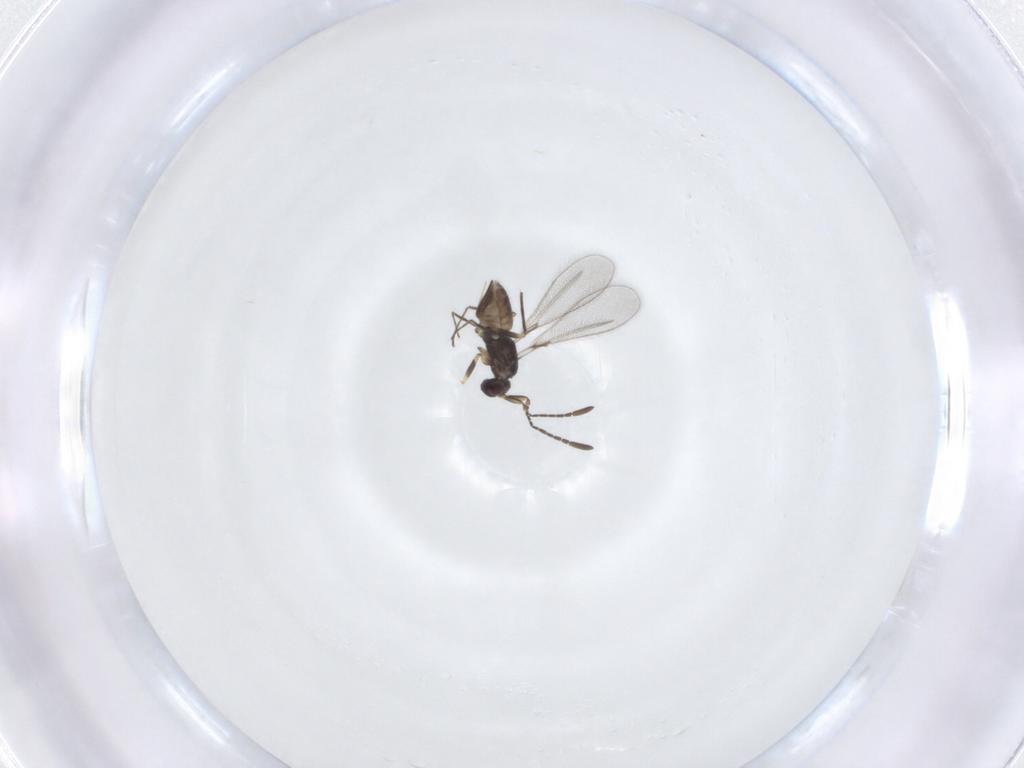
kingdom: Animalia
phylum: Arthropoda
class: Insecta
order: Hymenoptera
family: Mymaridae
